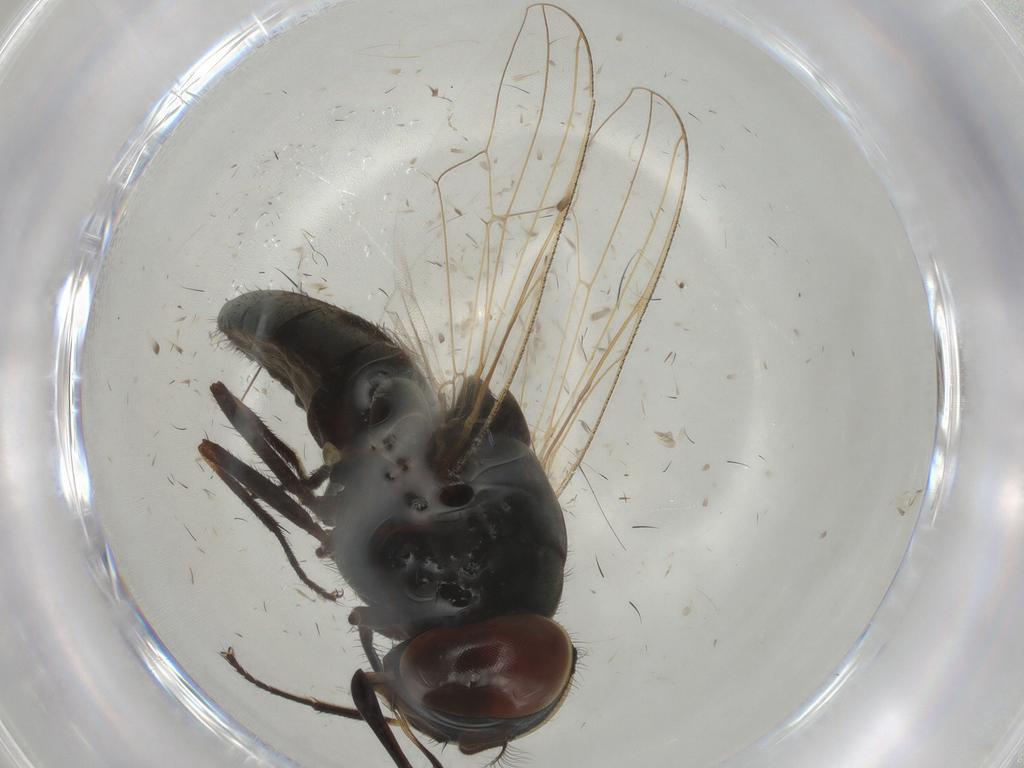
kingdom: Animalia
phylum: Arthropoda
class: Insecta
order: Diptera
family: Muscidae
